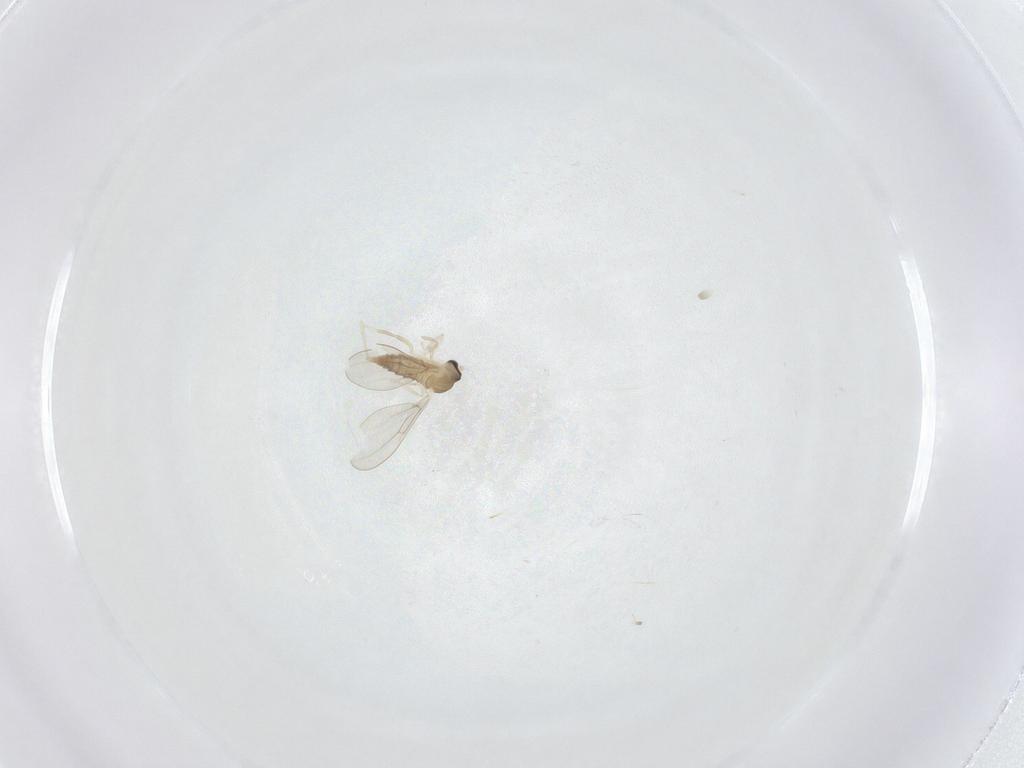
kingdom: Animalia
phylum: Arthropoda
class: Insecta
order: Diptera
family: Cecidomyiidae
